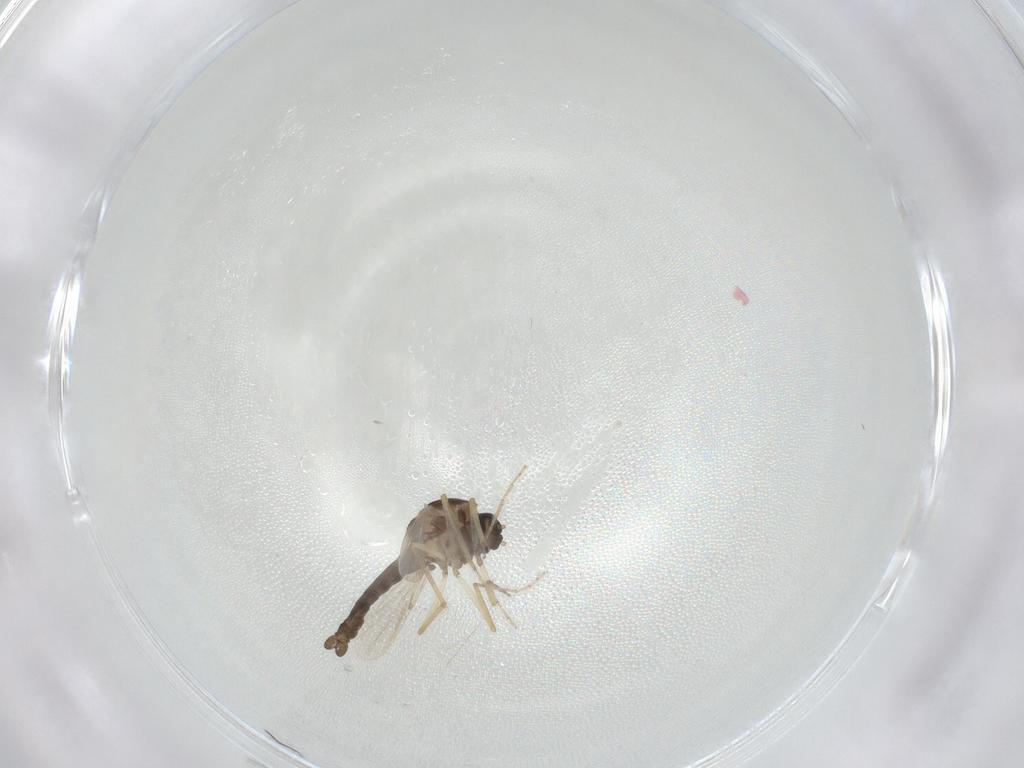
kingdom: Animalia
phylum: Arthropoda
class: Insecta
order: Diptera
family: Ceratopogonidae
